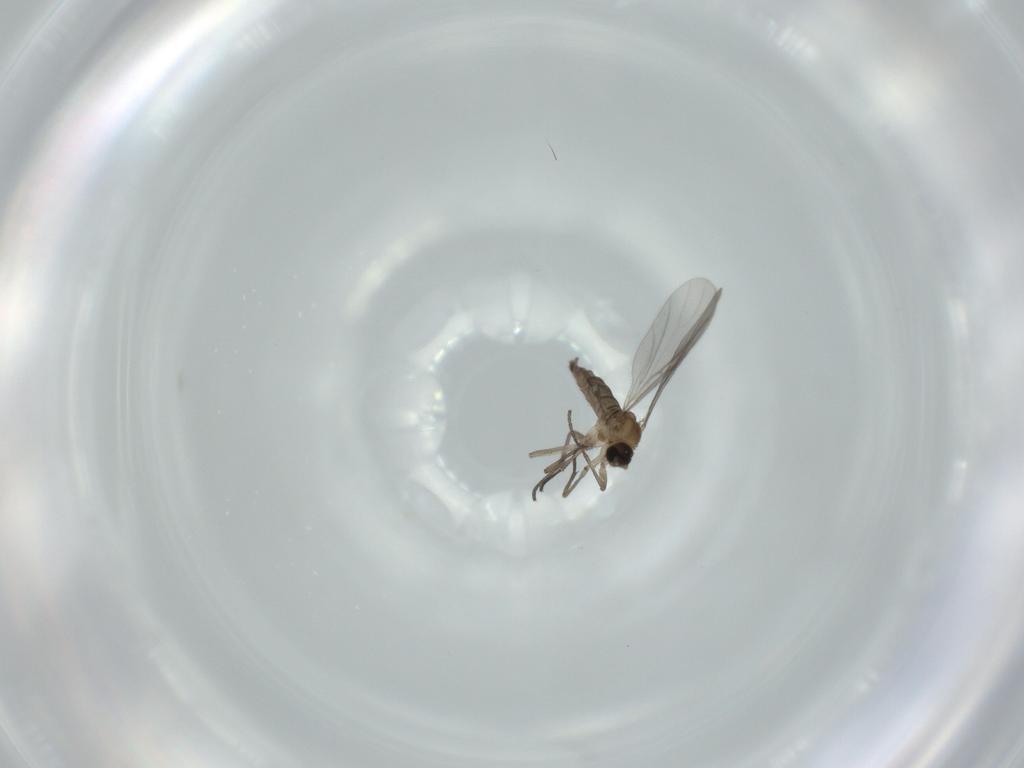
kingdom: Animalia
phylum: Arthropoda
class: Insecta
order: Diptera
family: Sciaridae
